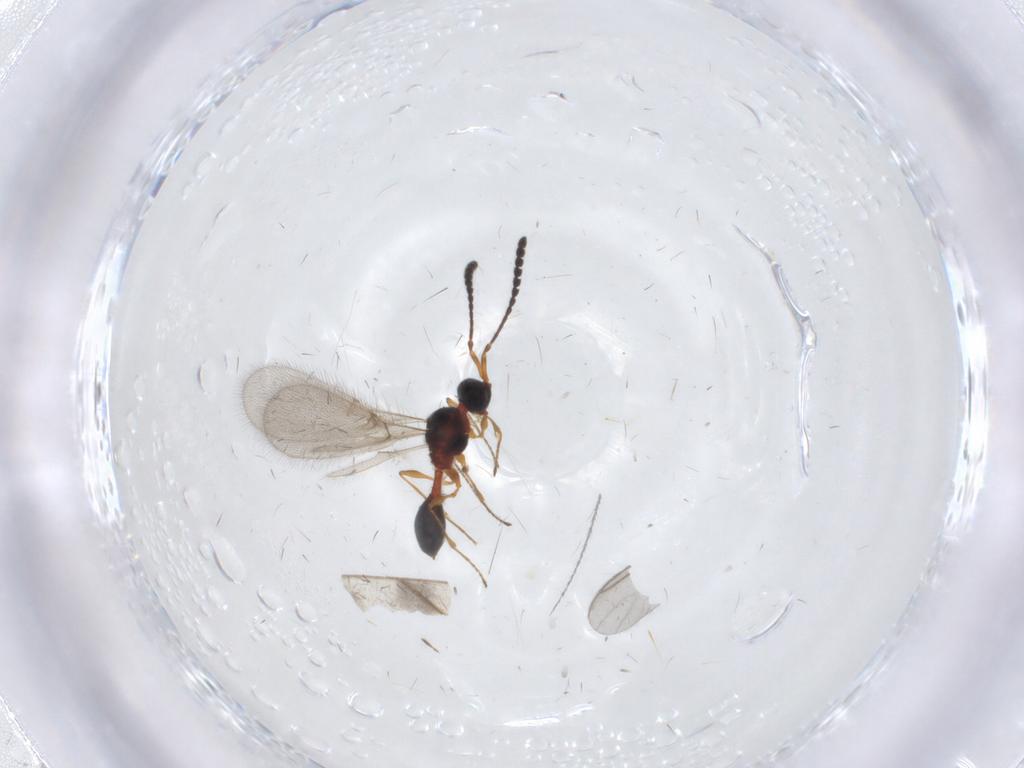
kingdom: Animalia
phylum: Arthropoda
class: Insecta
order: Hymenoptera
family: Diapriidae
